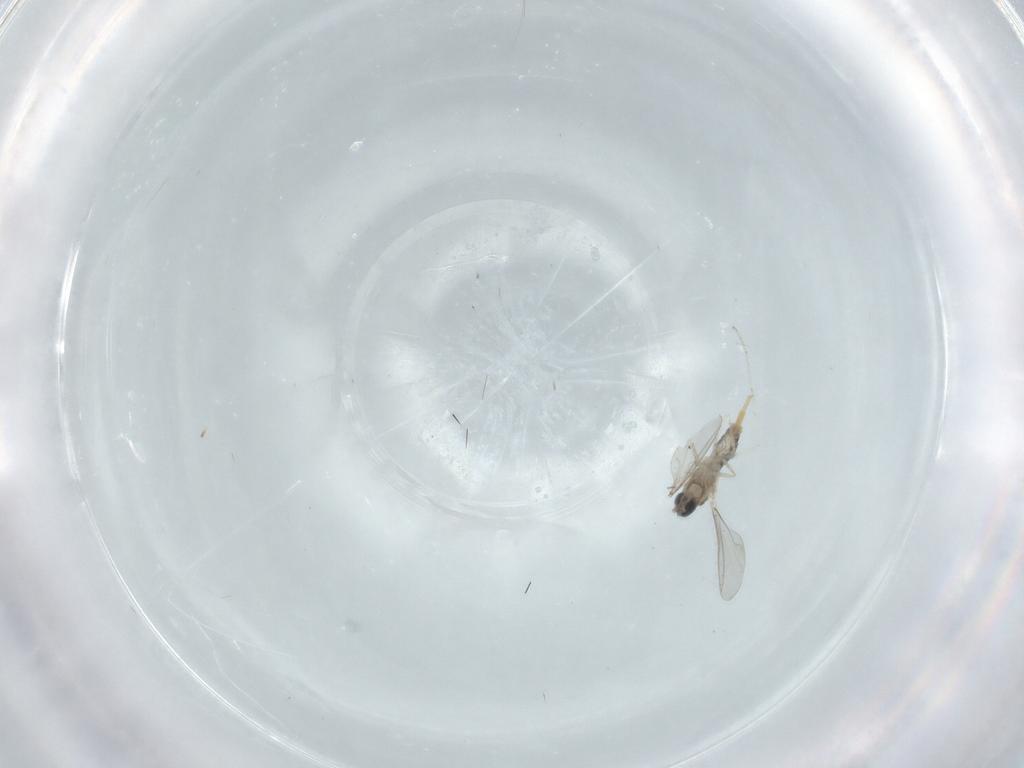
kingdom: Animalia
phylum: Arthropoda
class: Insecta
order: Diptera
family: Cecidomyiidae
